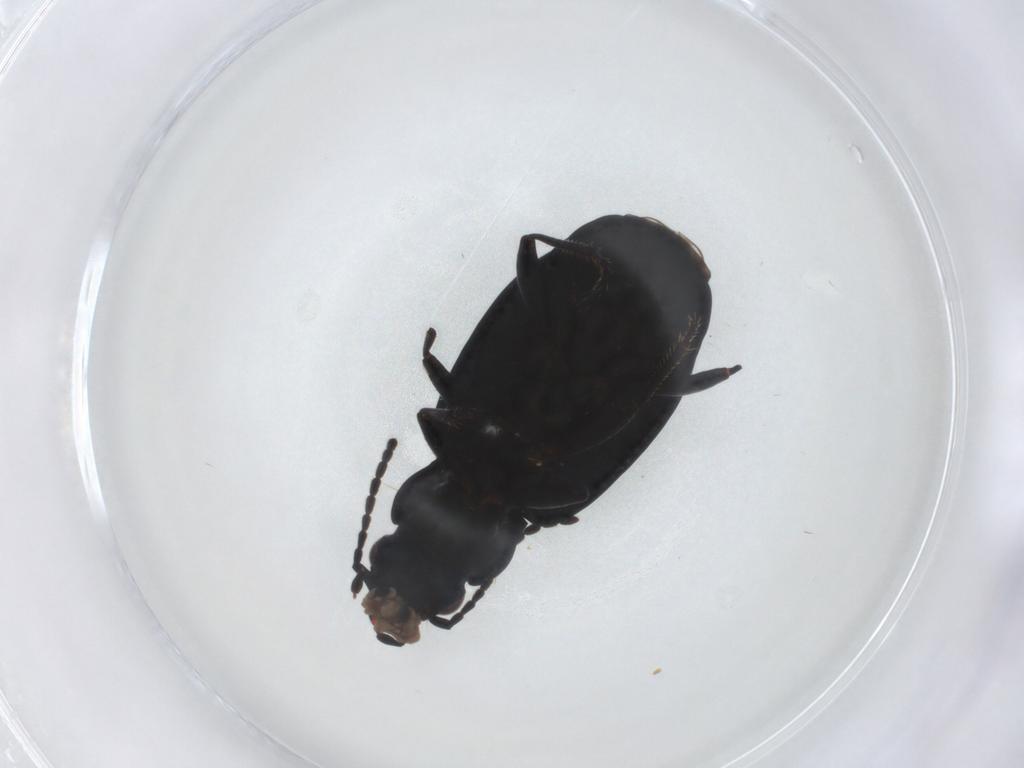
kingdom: Animalia
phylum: Arthropoda
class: Insecta
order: Coleoptera
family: Carabidae
